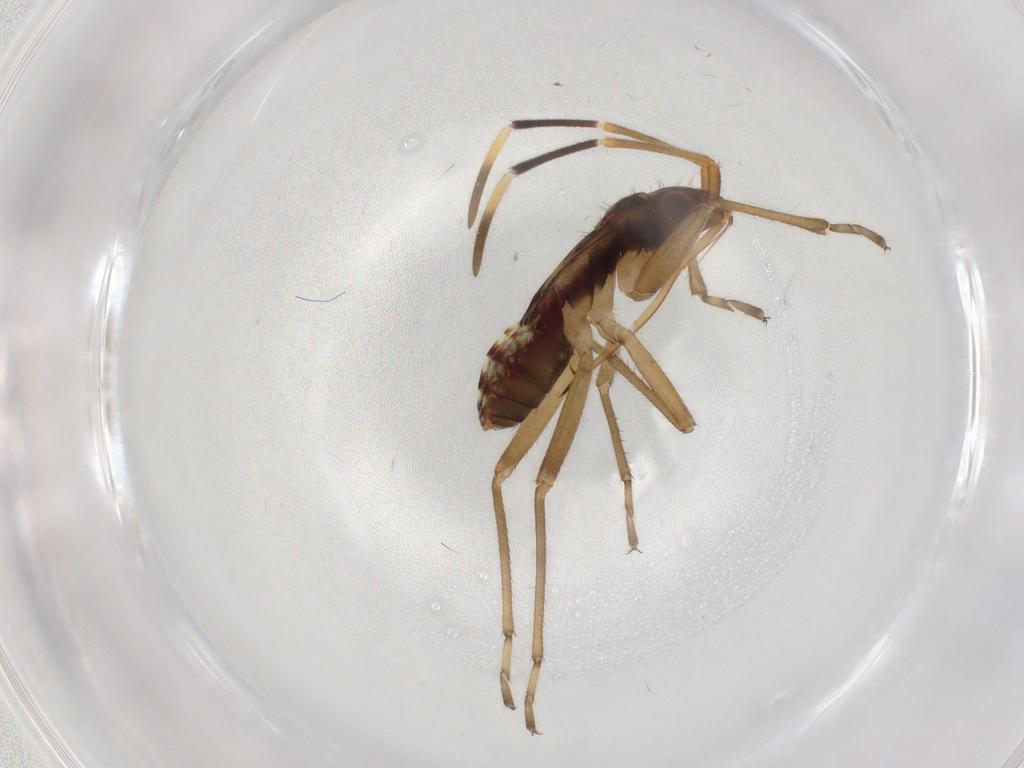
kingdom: Animalia
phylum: Arthropoda
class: Insecta
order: Hemiptera
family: Rhyparochromidae
